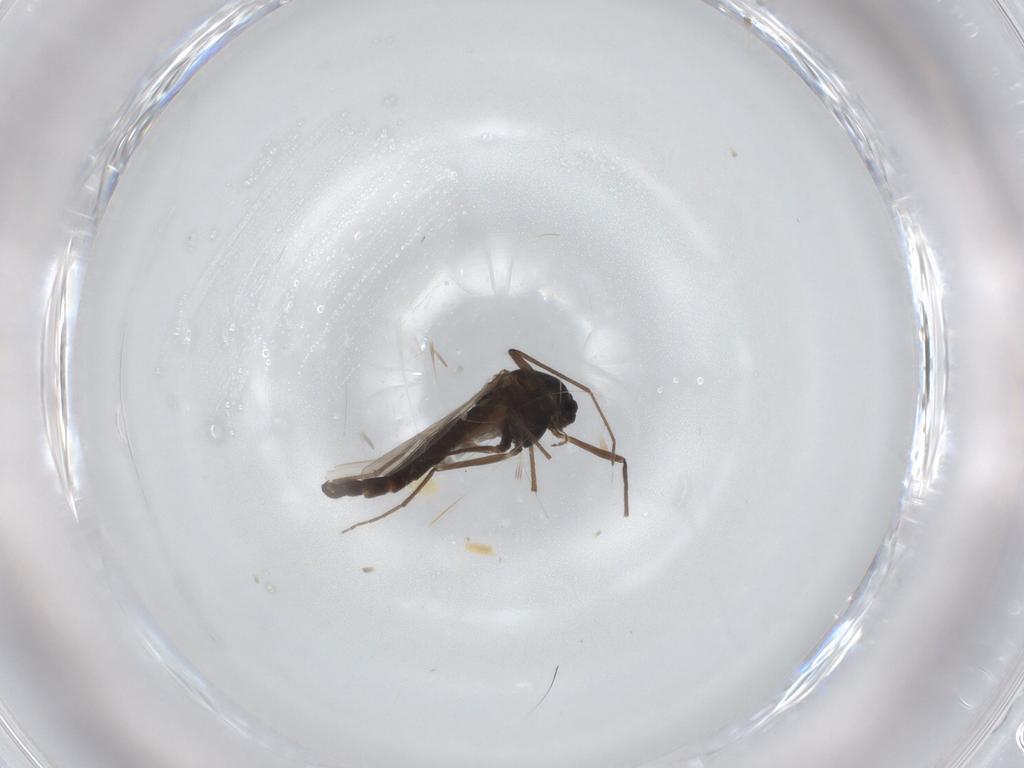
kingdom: Animalia
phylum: Arthropoda
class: Insecta
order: Diptera
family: Chironomidae
